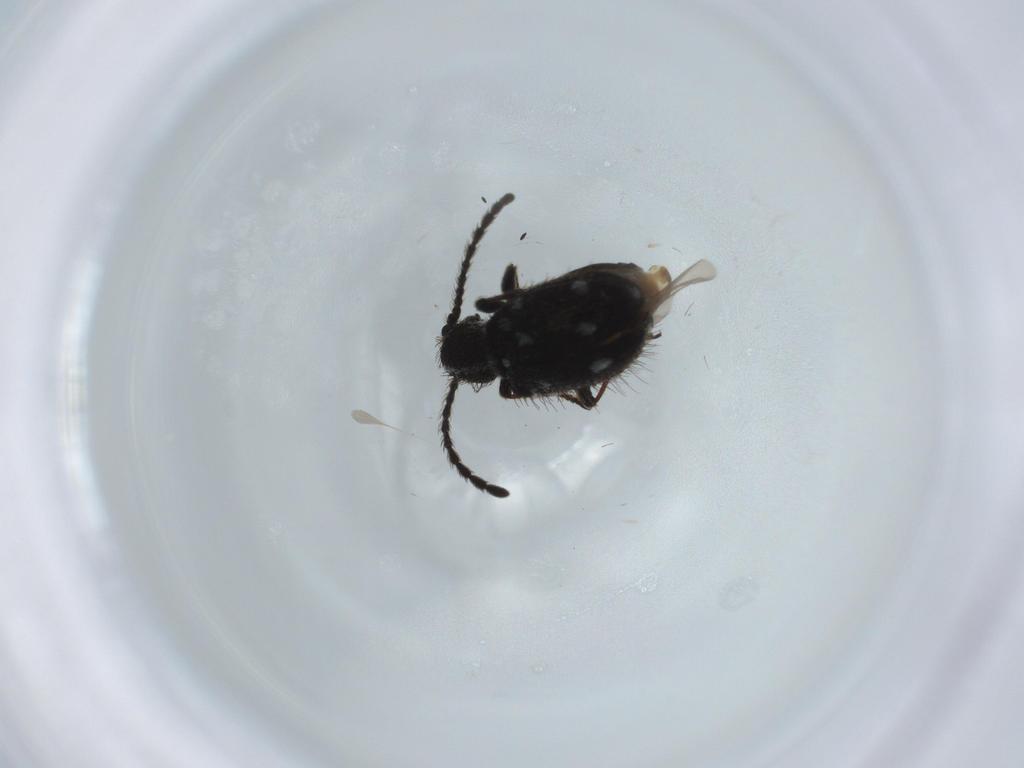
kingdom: Animalia
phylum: Arthropoda
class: Insecta
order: Coleoptera
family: Ptinidae
